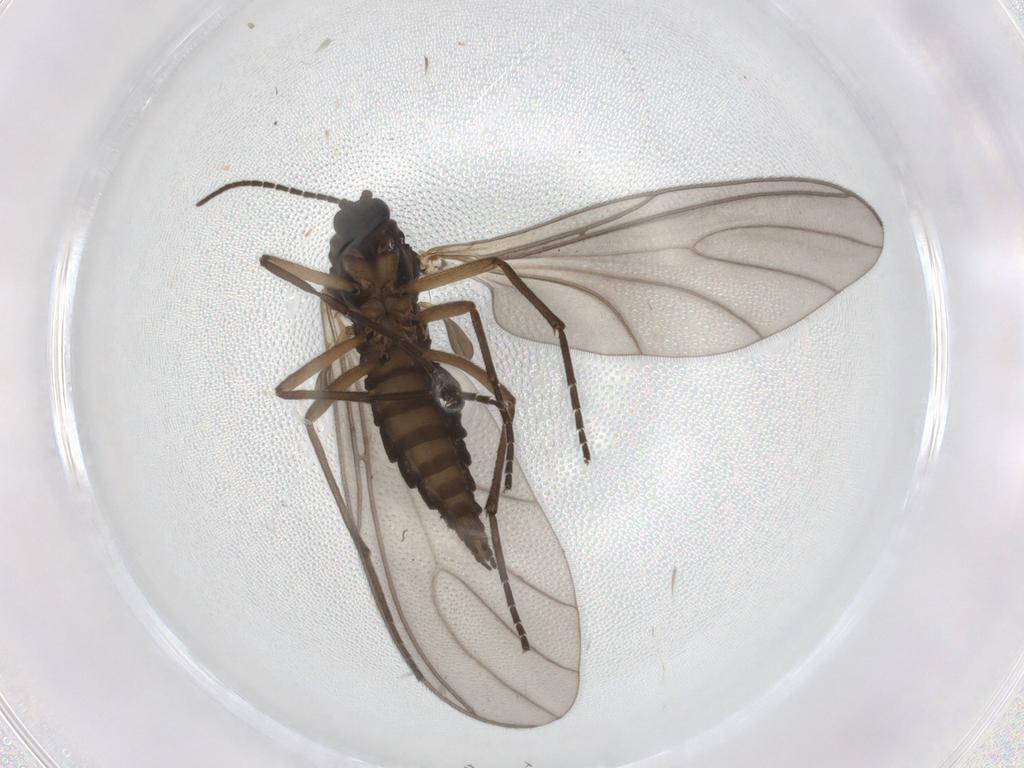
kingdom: Animalia
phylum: Arthropoda
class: Insecta
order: Diptera
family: Sciaridae
